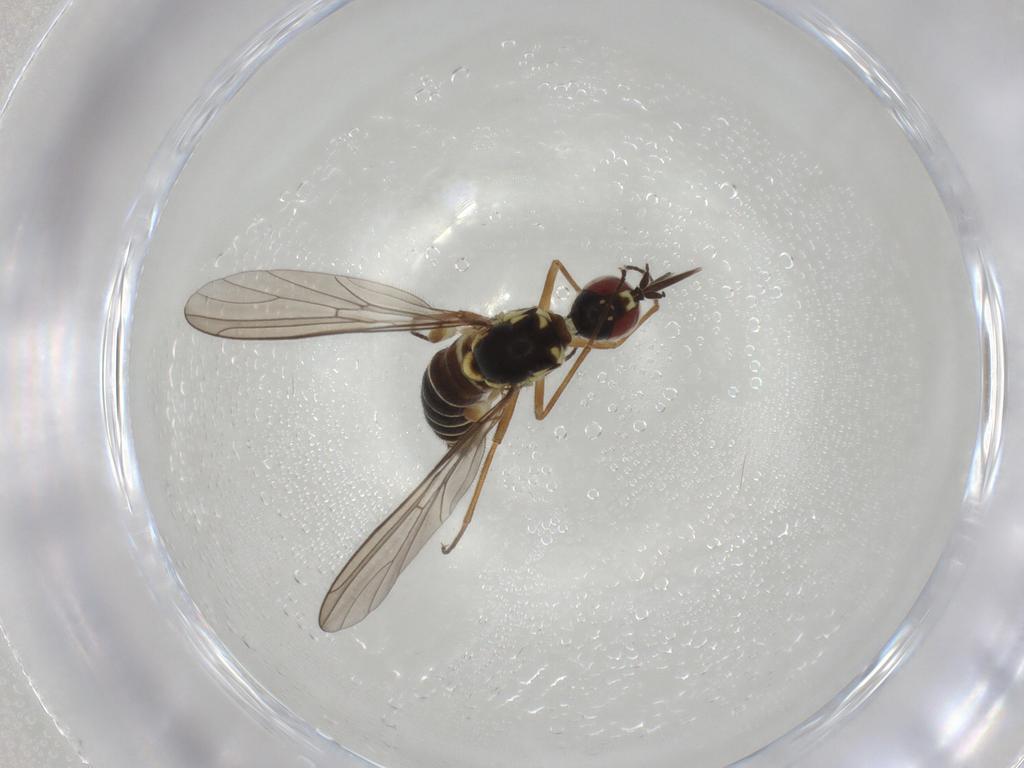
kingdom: Animalia
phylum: Arthropoda
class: Insecta
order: Diptera
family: Bombyliidae
